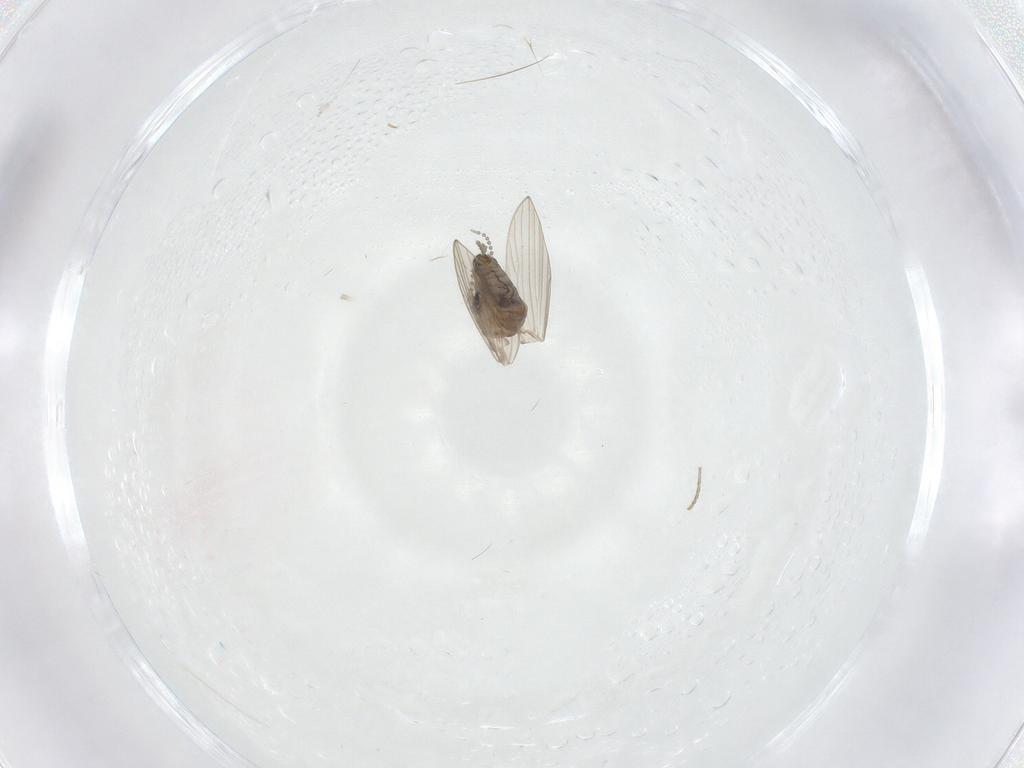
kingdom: Animalia
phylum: Arthropoda
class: Insecta
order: Diptera
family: Psychodidae
